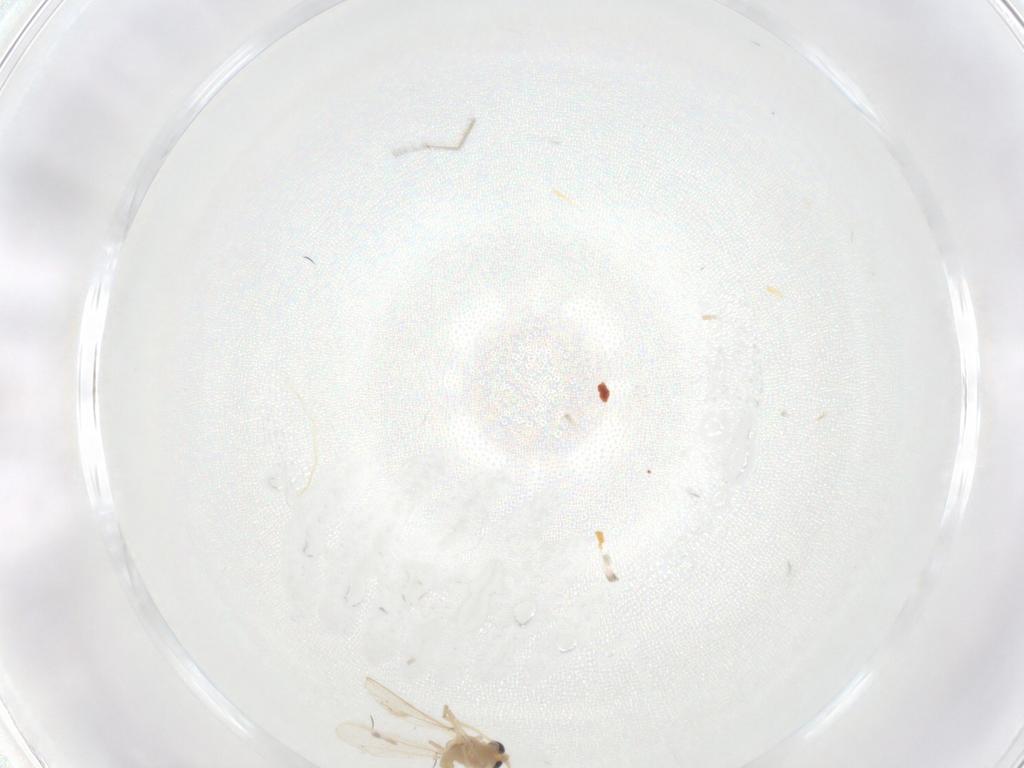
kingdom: Animalia
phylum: Arthropoda
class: Insecta
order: Diptera
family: Chironomidae
